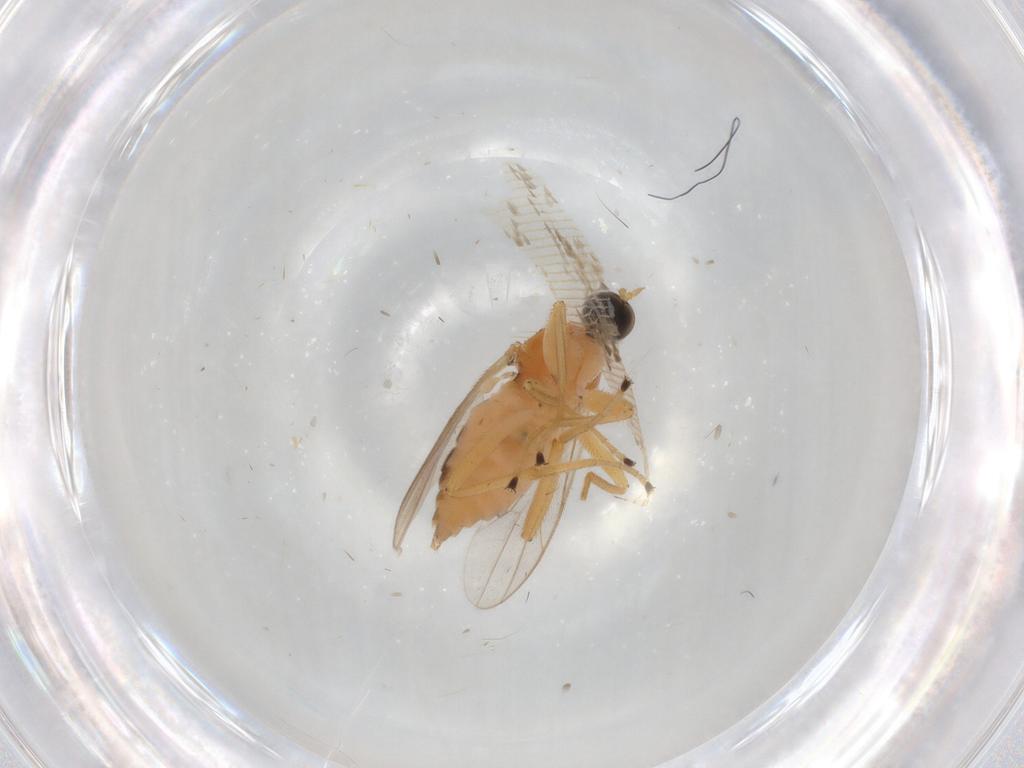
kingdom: Animalia
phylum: Arthropoda
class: Insecta
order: Diptera
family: Hybotidae
